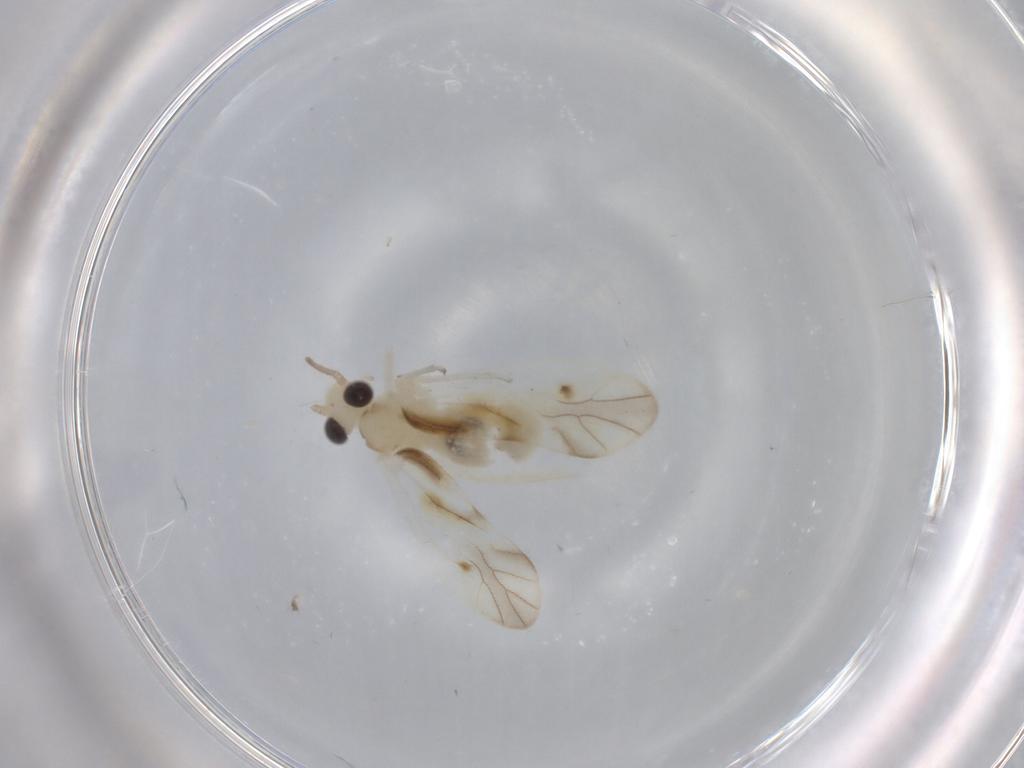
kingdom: Animalia
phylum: Arthropoda
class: Insecta
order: Psocodea
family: Caeciliusidae
